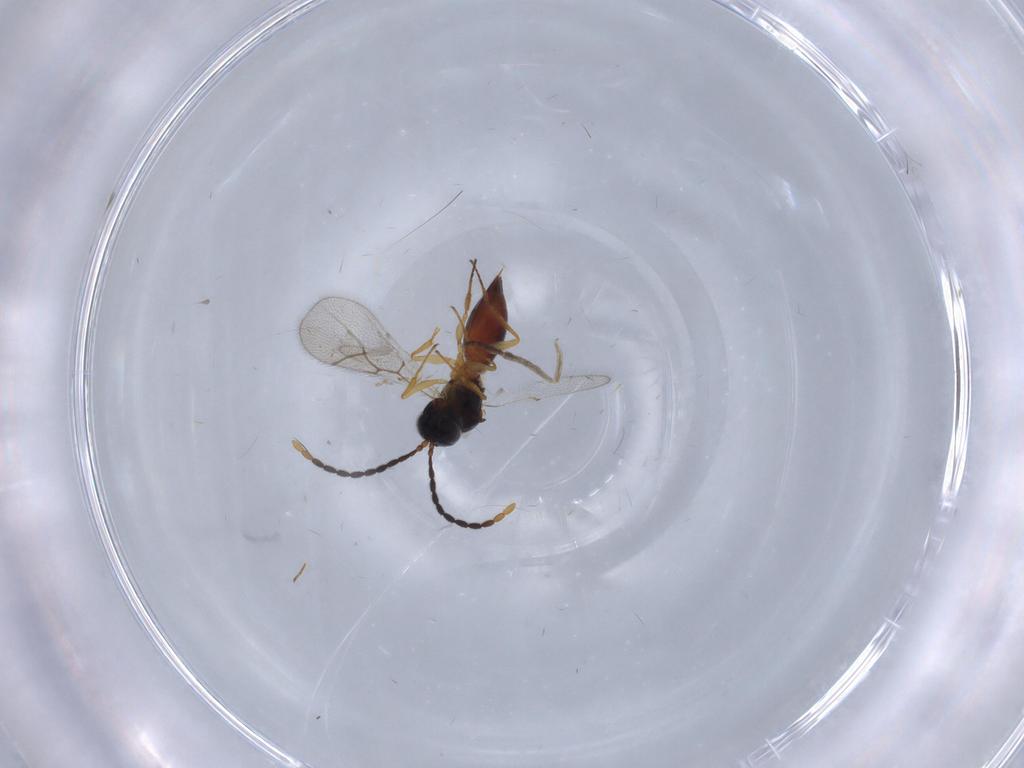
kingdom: Animalia
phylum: Arthropoda
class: Insecta
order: Hymenoptera
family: Figitidae
